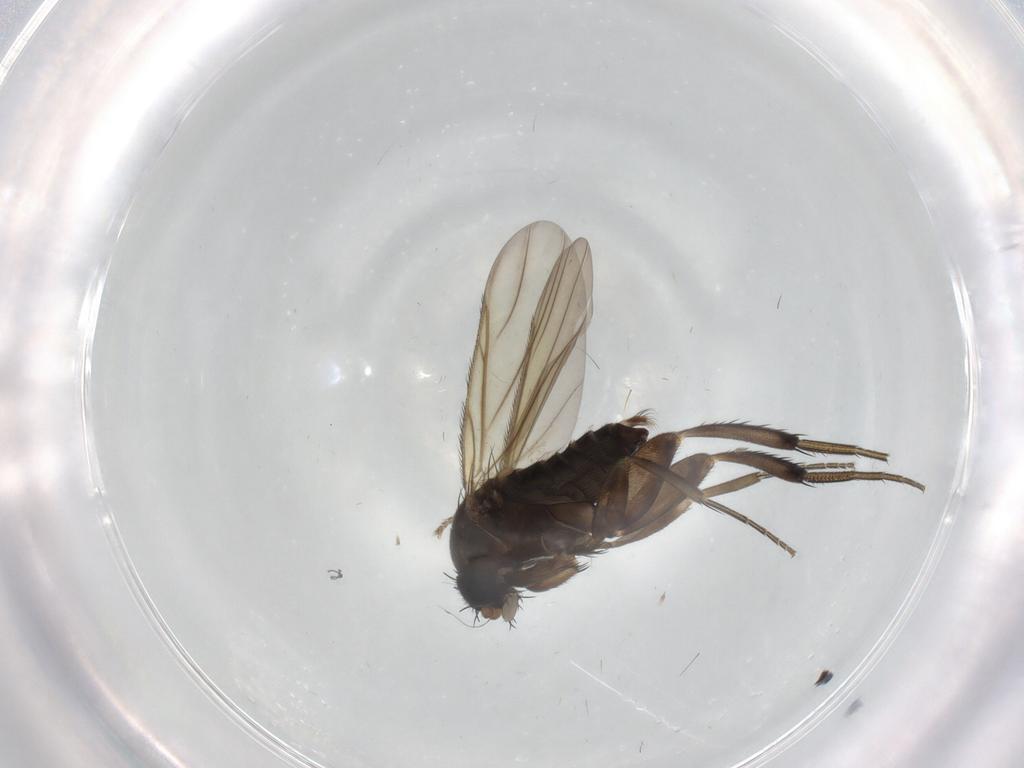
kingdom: Animalia
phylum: Arthropoda
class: Insecta
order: Diptera
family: Phoridae
